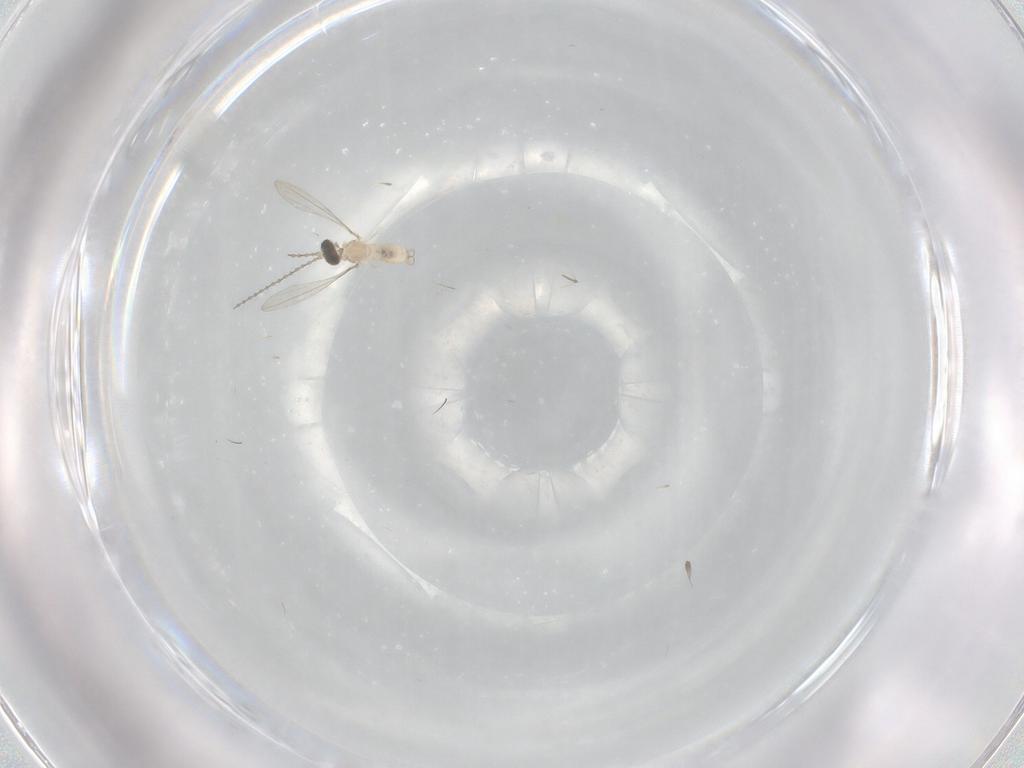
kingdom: Animalia
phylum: Arthropoda
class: Insecta
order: Diptera
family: Cecidomyiidae
